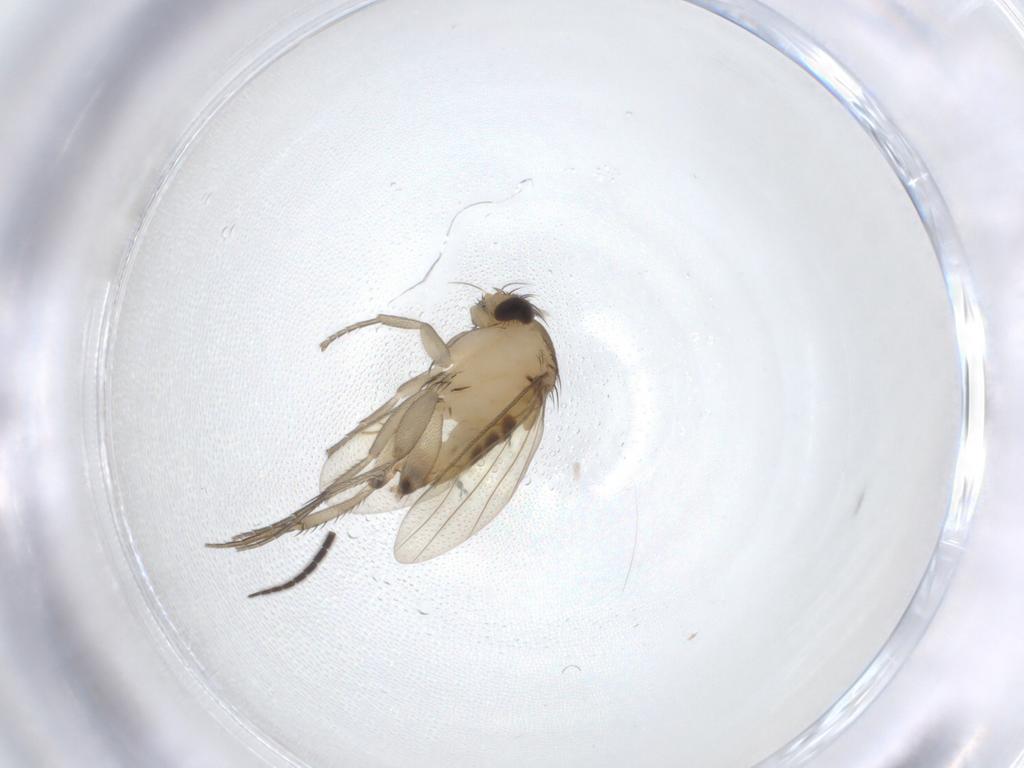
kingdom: Animalia
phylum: Arthropoda
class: Insecta
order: Diptera
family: Phoridae
